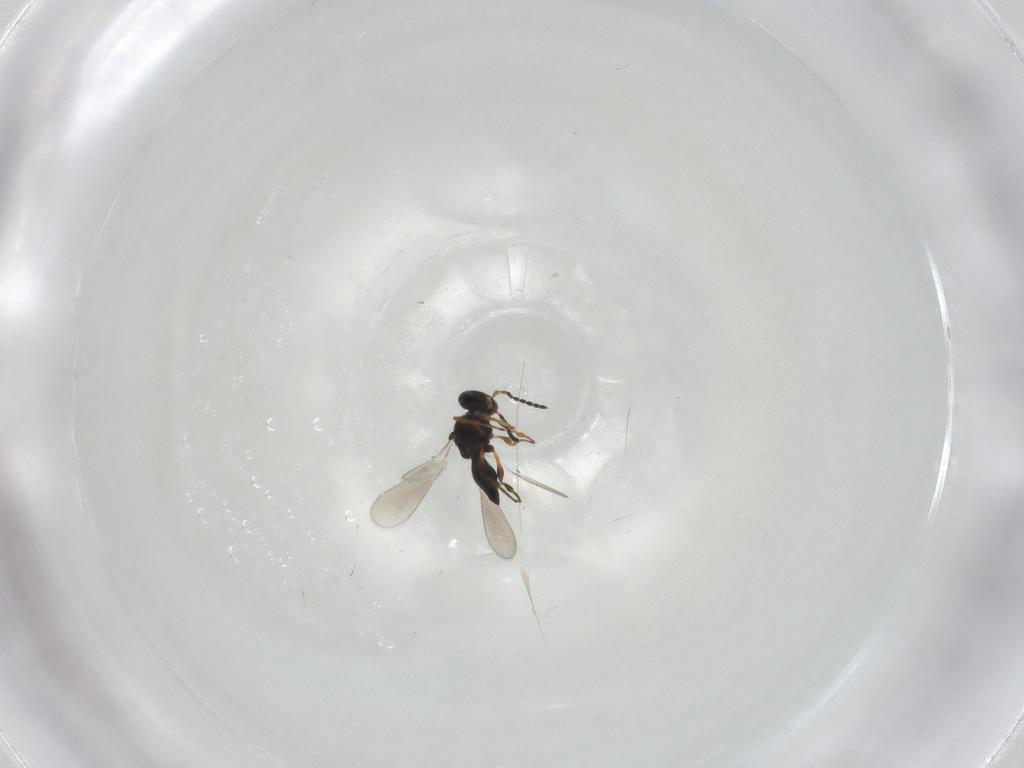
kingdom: Animalia
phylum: Arthropoda
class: Insecta
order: Hymenoptera
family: Platygastridae
